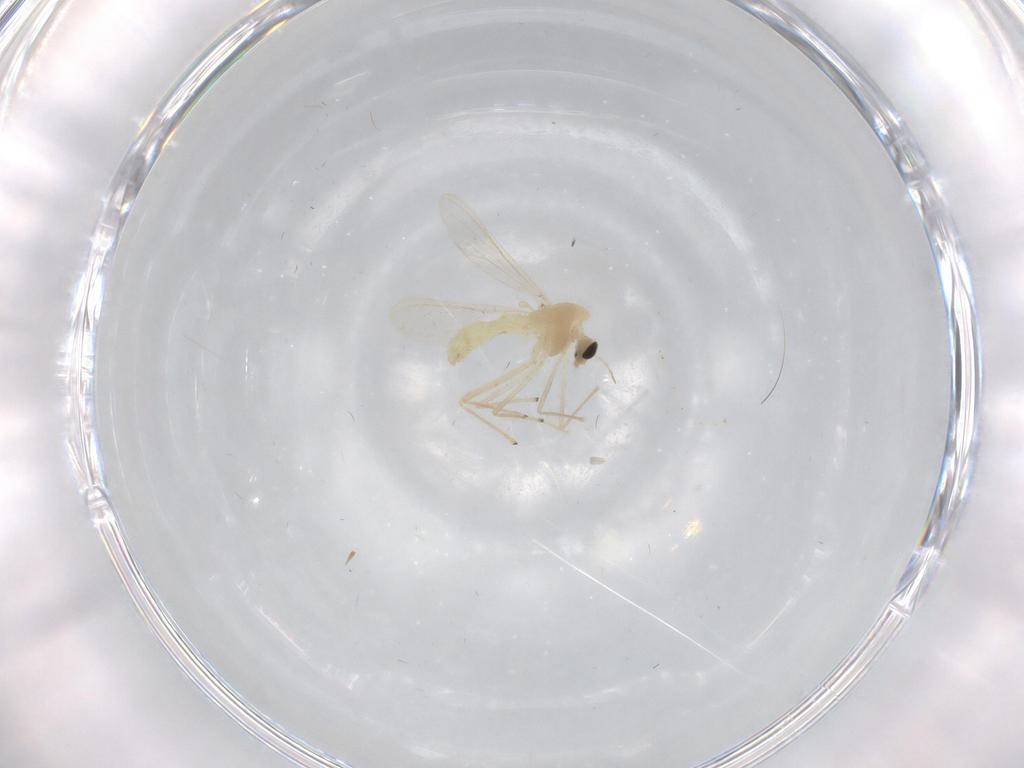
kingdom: Animalia
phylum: Arthropoda
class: Insecta
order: Diptera
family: Chironomidae
